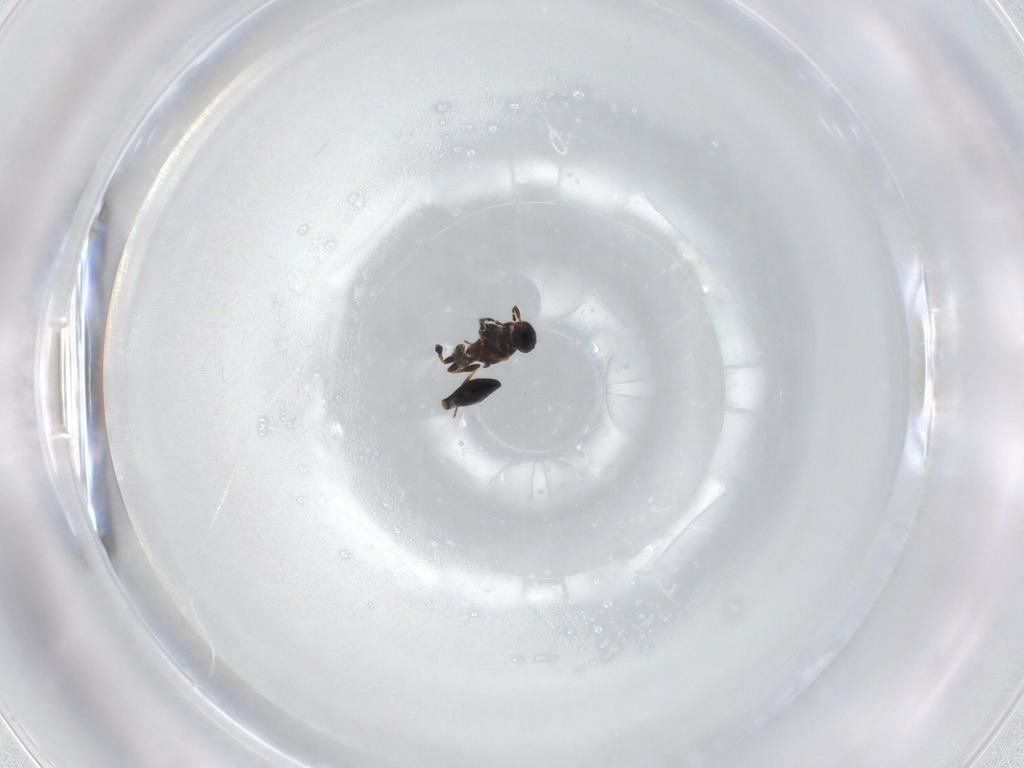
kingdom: Animalia
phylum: Arthropoda
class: Insecta
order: Hymenoptera
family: Platygastridae
